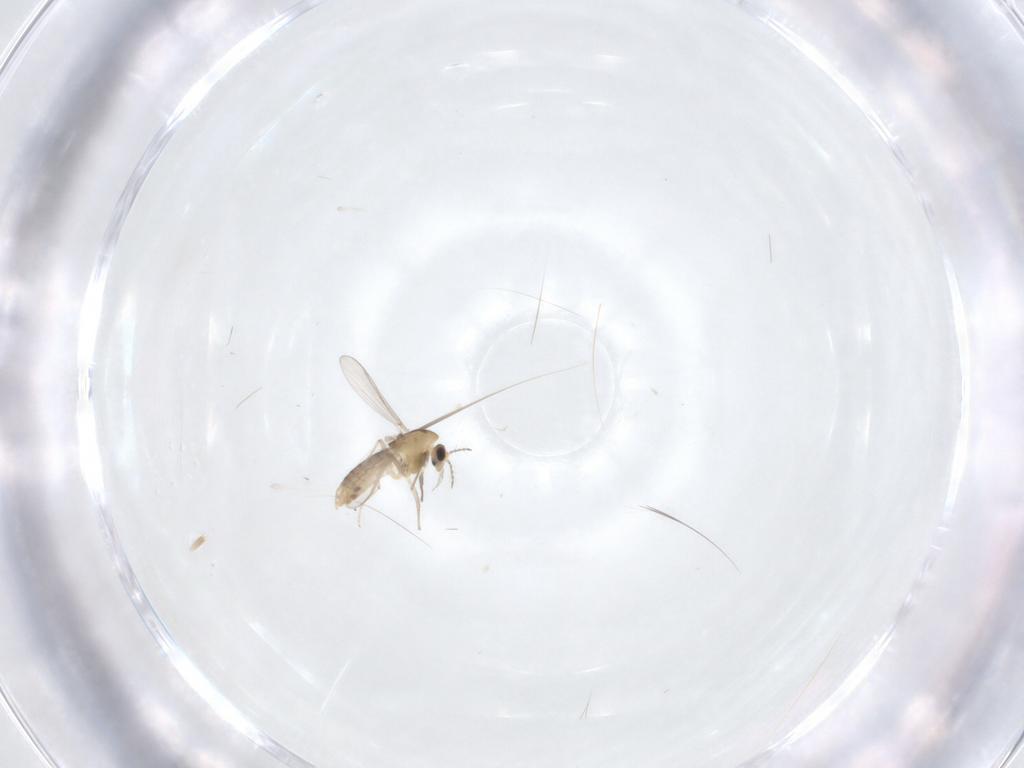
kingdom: Animalia
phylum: Arthropoda
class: Insecta
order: Diptera
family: Chironomidae
